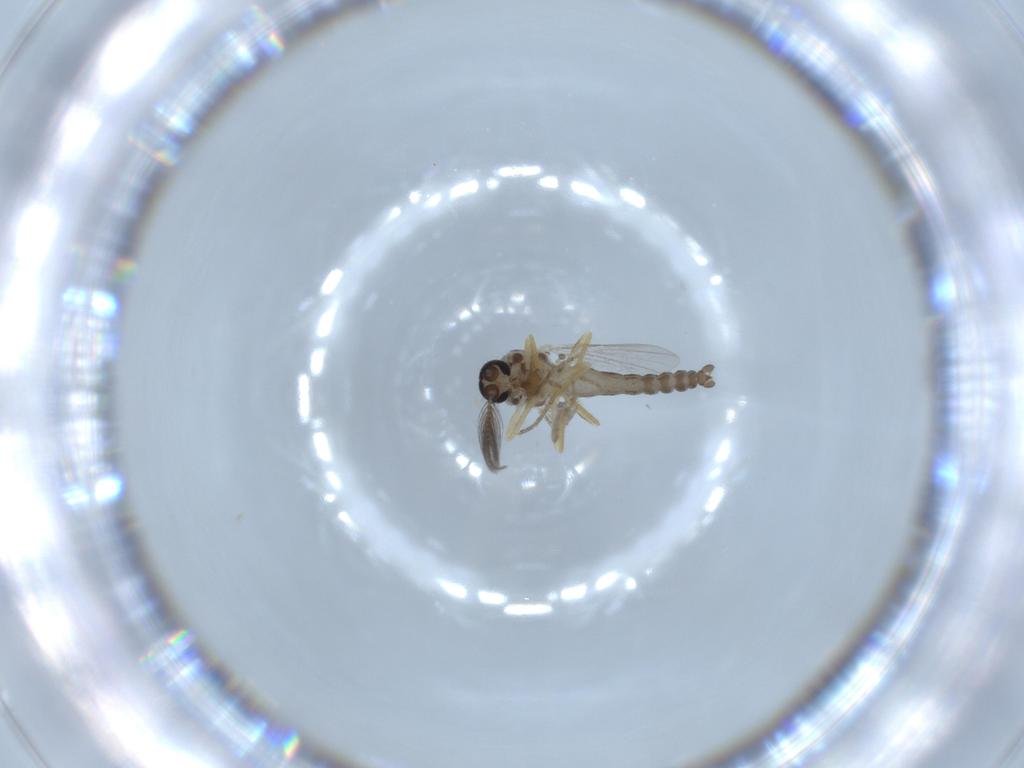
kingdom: Animalia
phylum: Arthropoda
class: Insecta
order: Diptera
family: Ceratopogonidae
